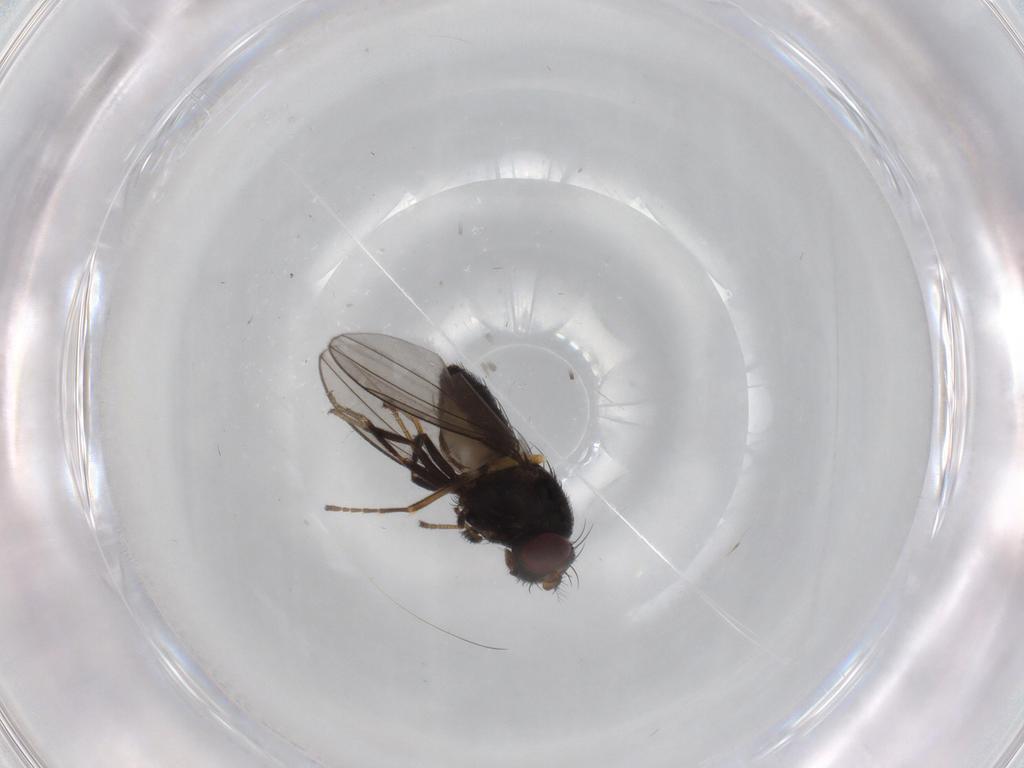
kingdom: Animalia
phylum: Arthropoda
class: Insecta
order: Diptera
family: Ephydridae
